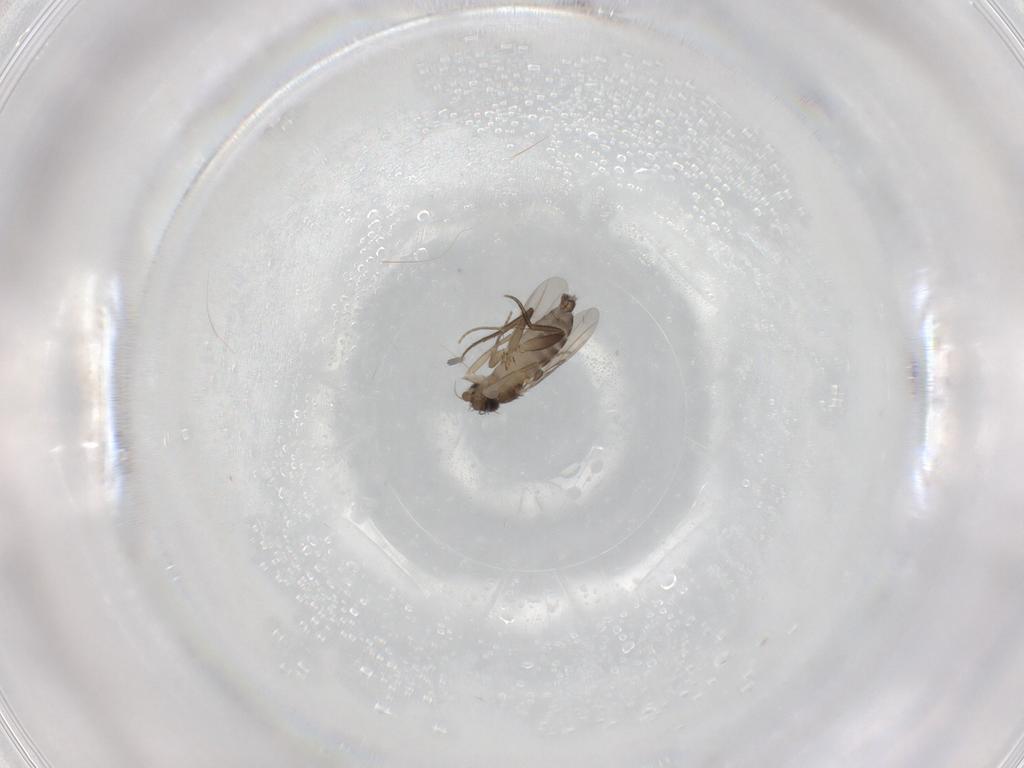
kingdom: Animalia
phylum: Arthropoda
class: Insecta
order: Diptera
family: Phoridae
